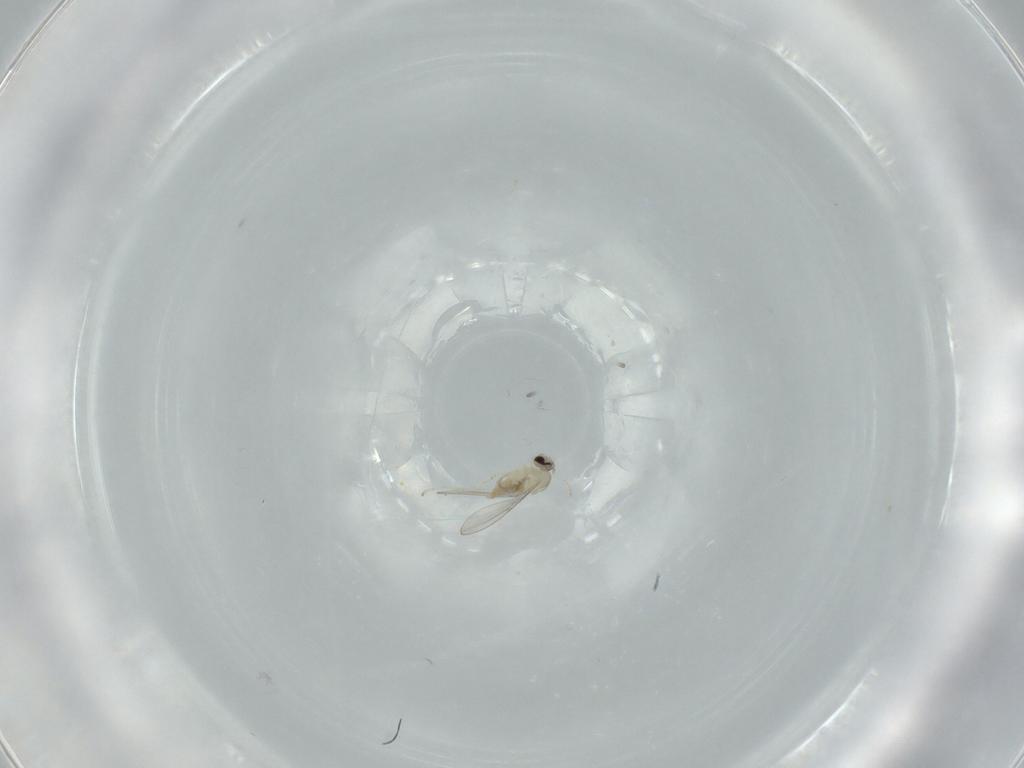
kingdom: Animalia
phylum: Arthropoda
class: Insecta
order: Diptera
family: Cecidomyiidae
